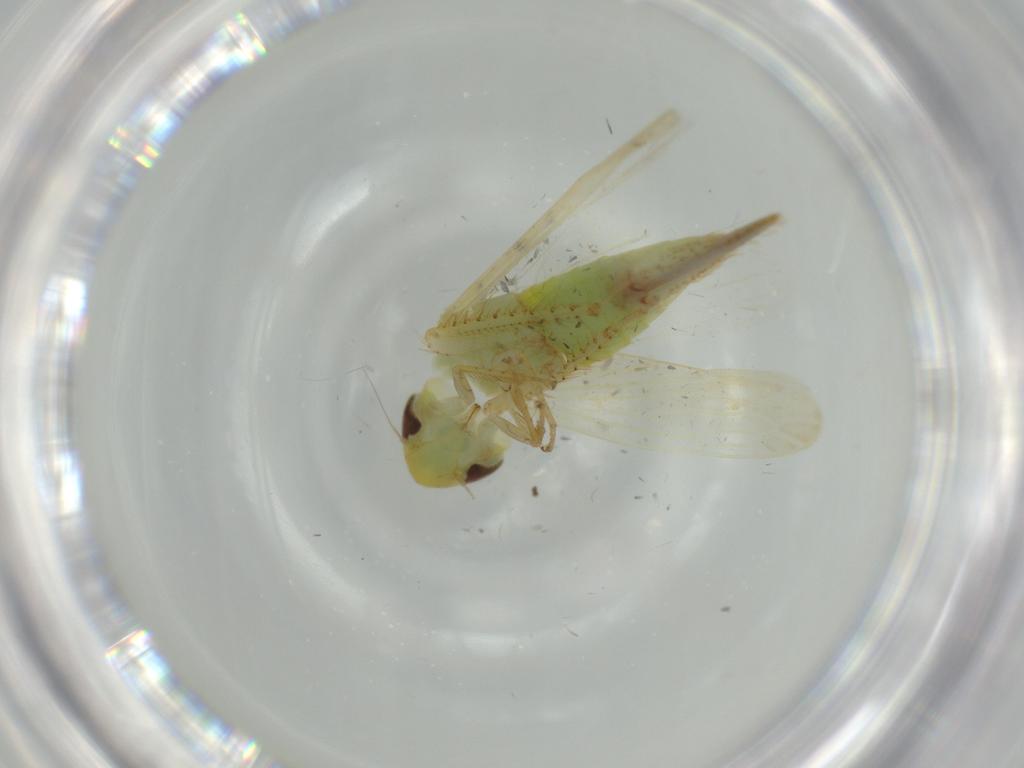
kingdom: Animalia
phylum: Arthropoda
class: Insecta
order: Hemiptera
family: Cicadellidae
